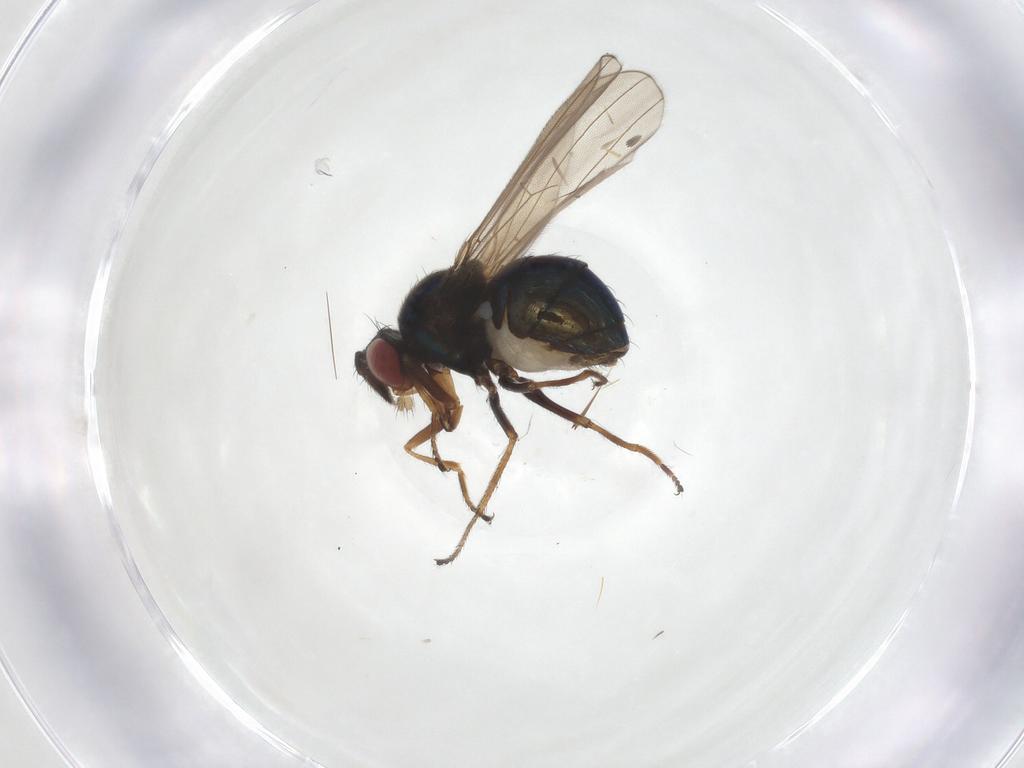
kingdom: Animalia
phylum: Arthropoda
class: Insecta
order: Diptera
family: Ephydridae
